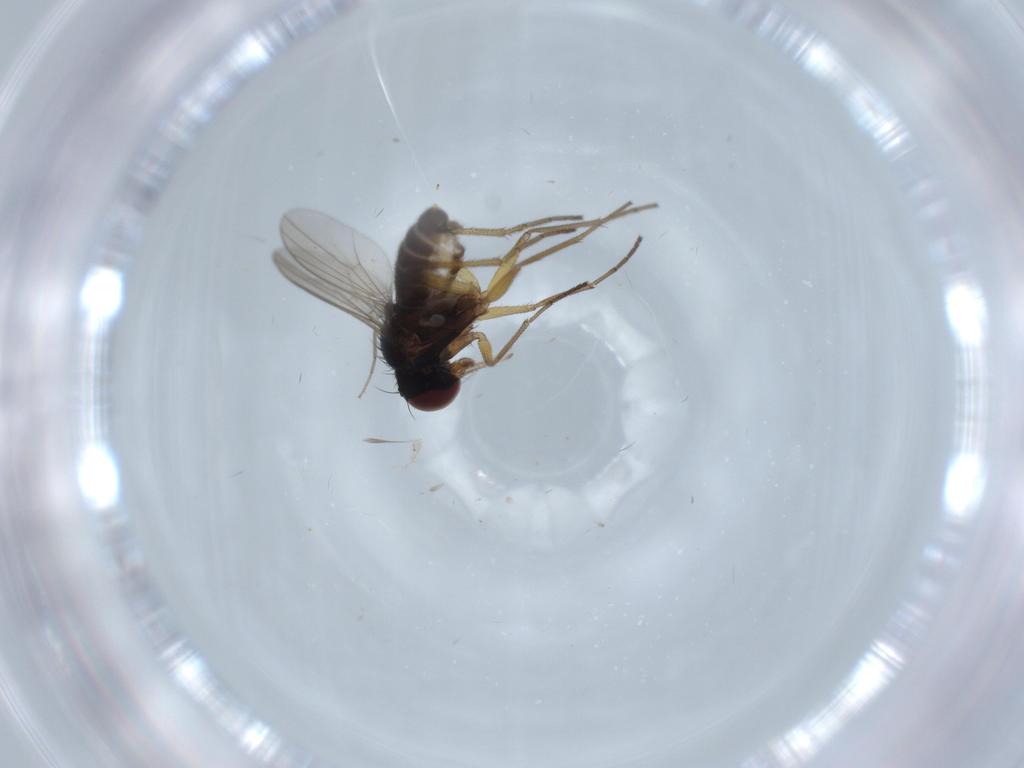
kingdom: Animalia
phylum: Arthropoda
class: Insecta
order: Diptera
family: Dolichopodidae
